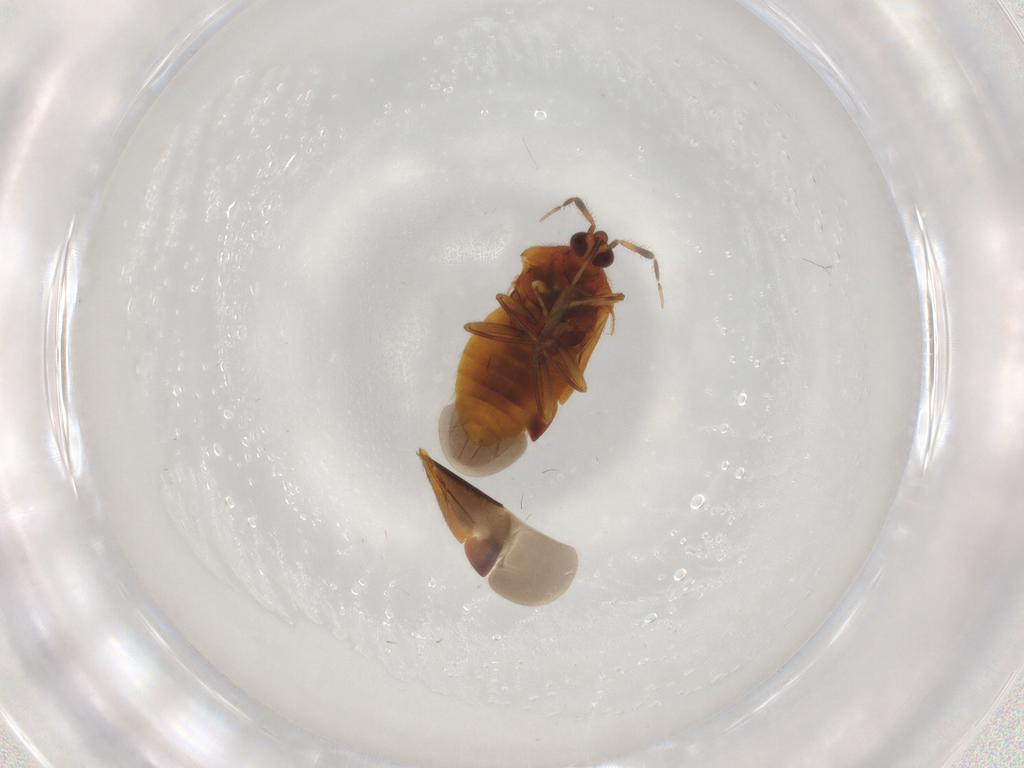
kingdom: Animalia
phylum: Arthropoda
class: Insecta
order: Hemiptera
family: Anthocoridae
